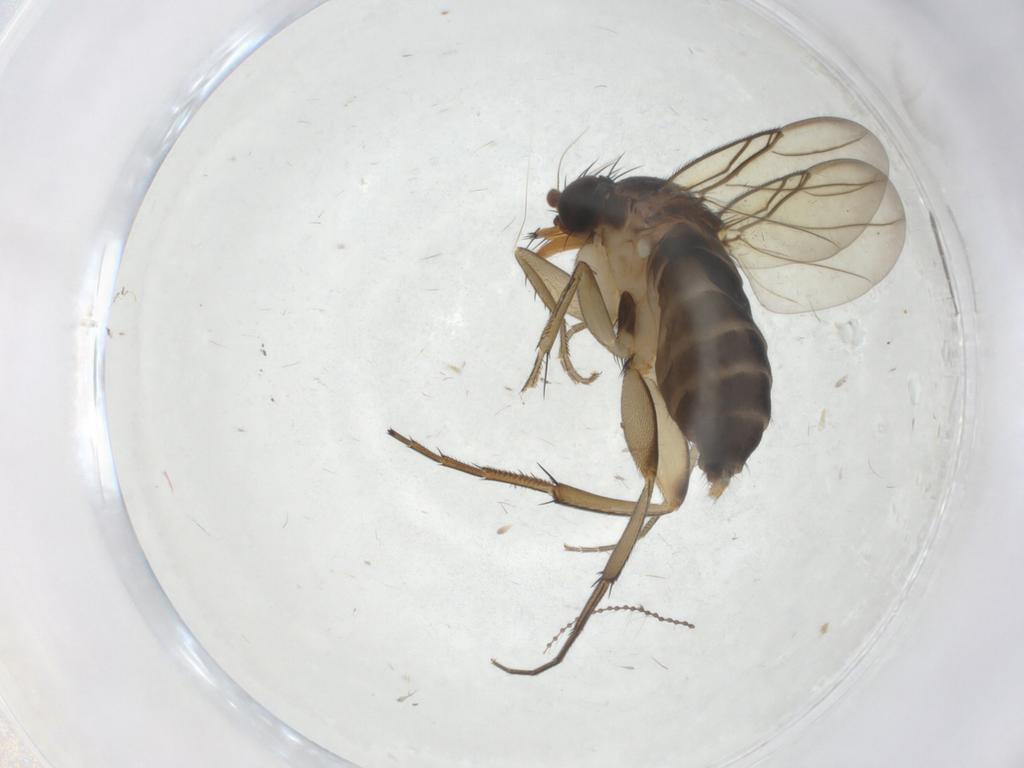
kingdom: Animalia
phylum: Arthropoda
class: Insecta
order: Diptera
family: Cecidomyiidae
